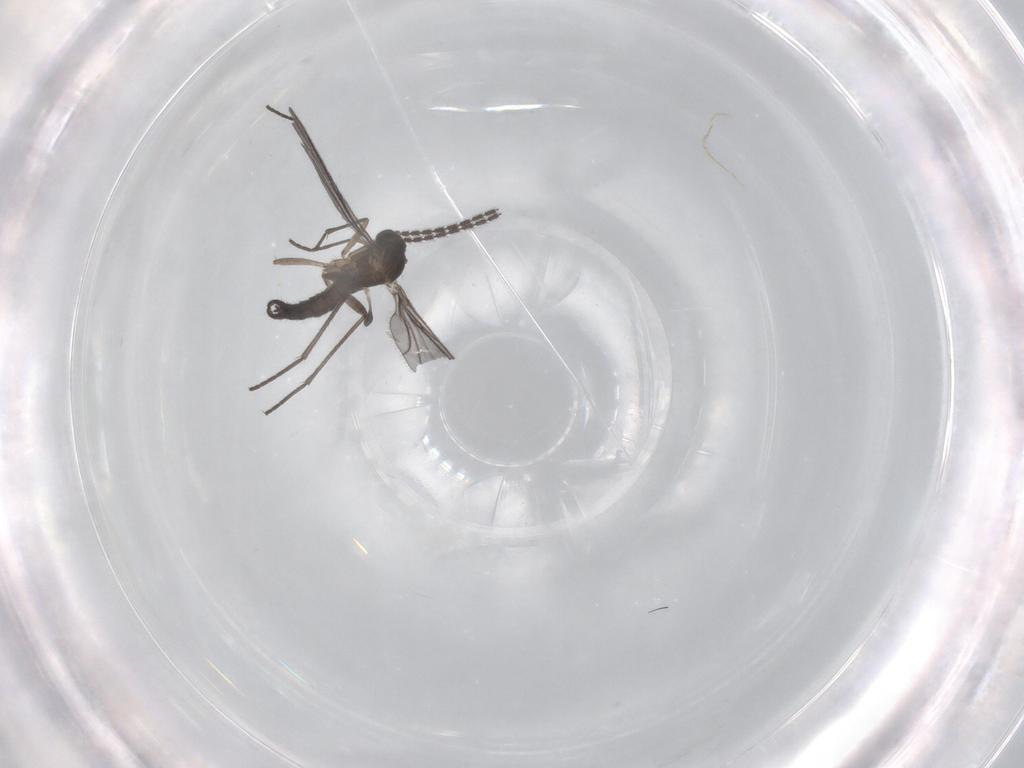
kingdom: Animalia
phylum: Arthropoda
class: Insecta
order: Diptera
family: Sciaridae
